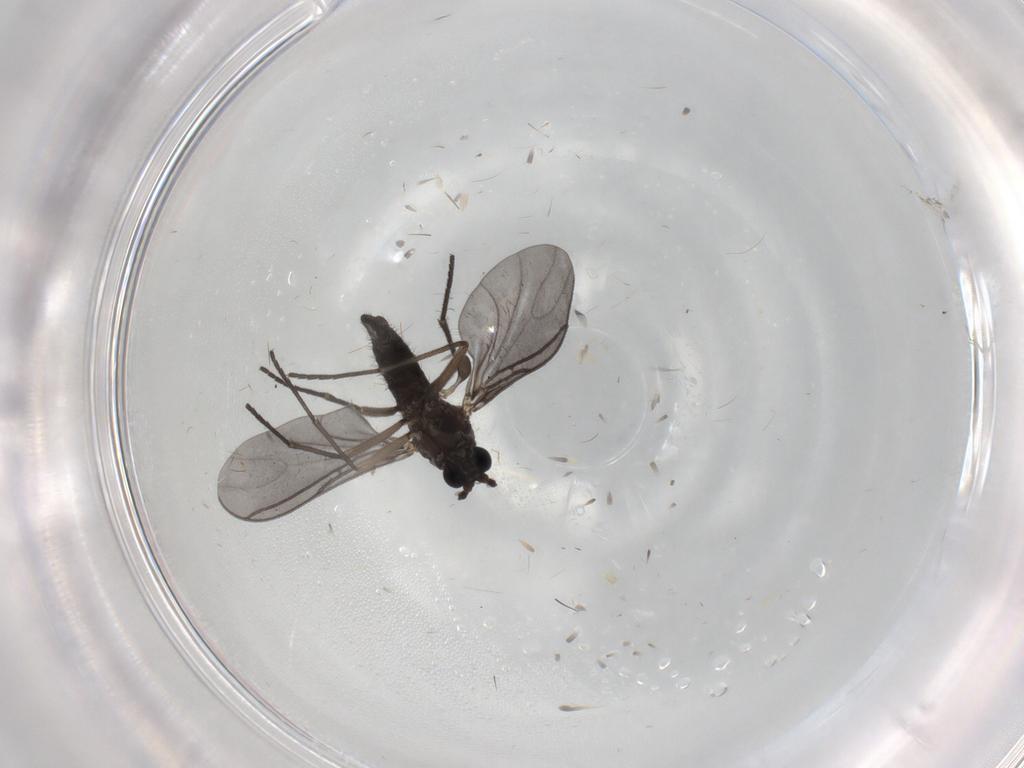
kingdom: Animalia
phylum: Arthropoda
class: Insecta
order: Diptera
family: Sciaridae
